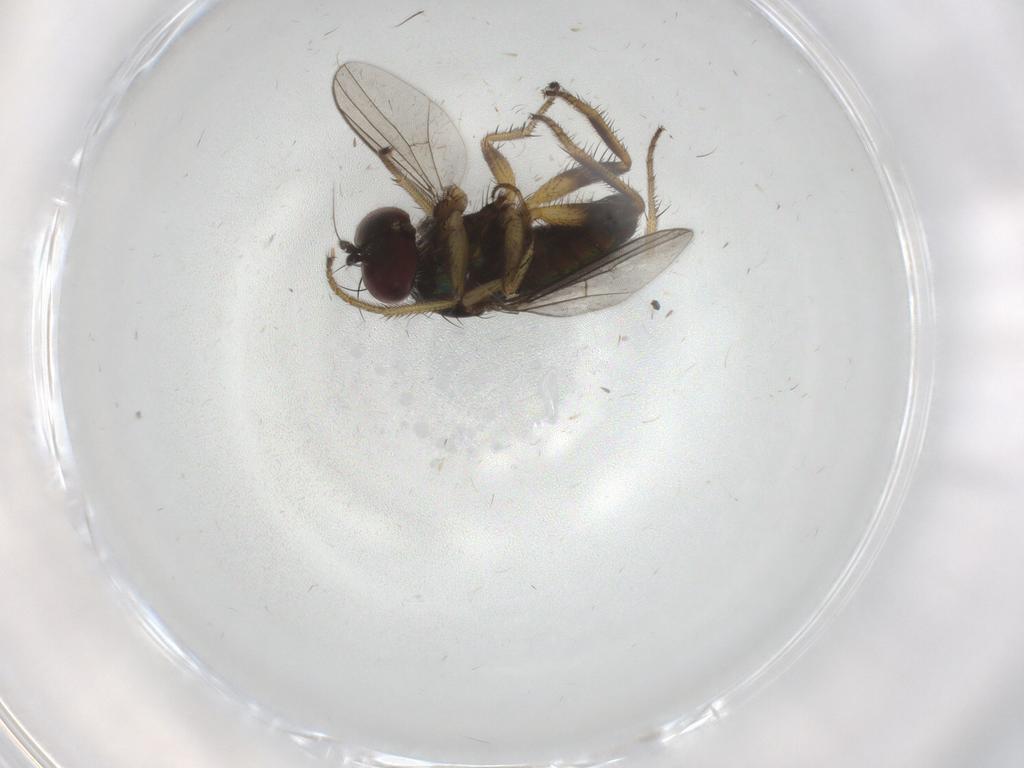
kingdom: Animalia
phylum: Arthropoda
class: Insecta
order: Diptera
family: Dolichopodidae
